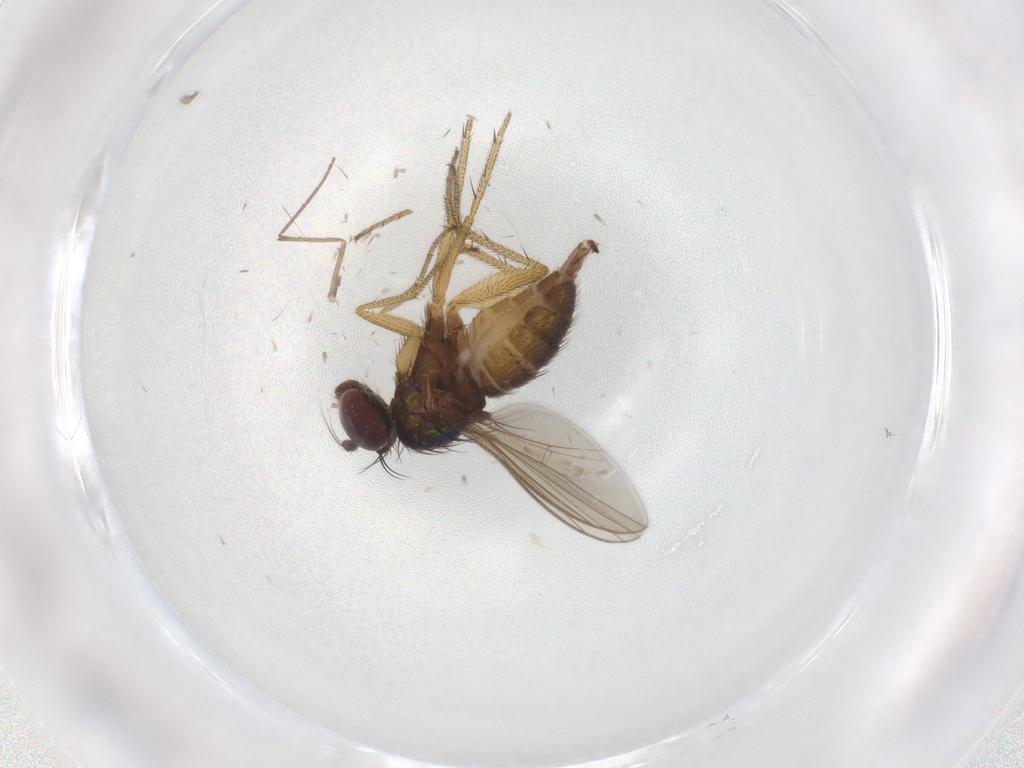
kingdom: Animalia
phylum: Arthropoda
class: Insecta
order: Diptera
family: Dolichopodidae
